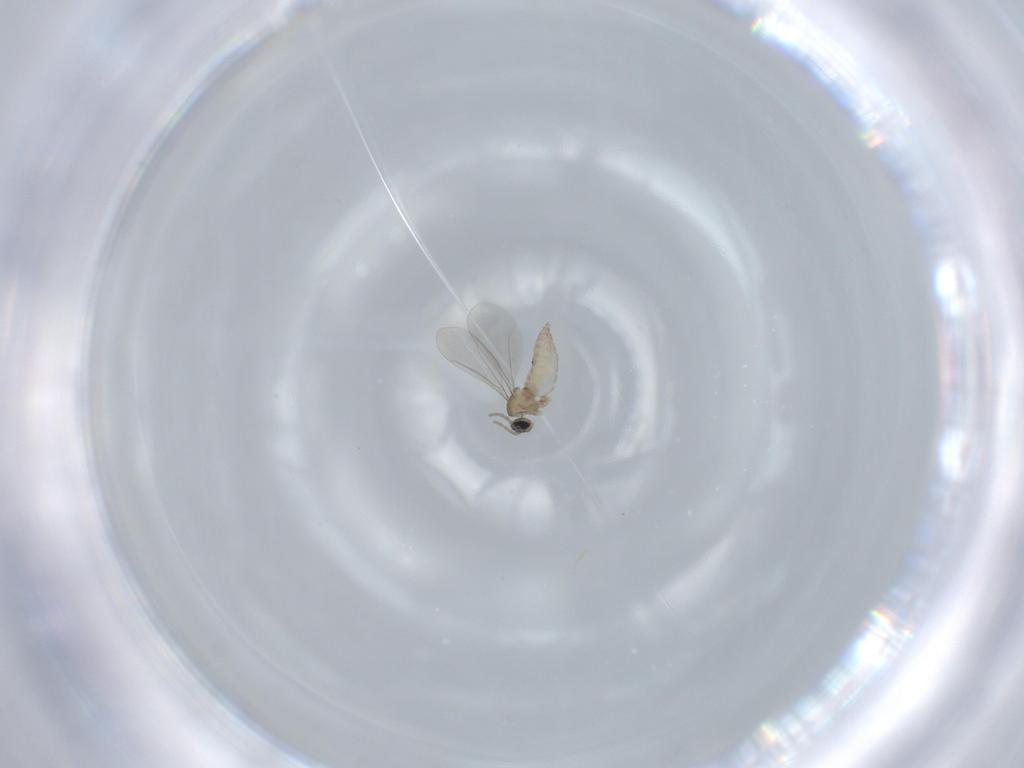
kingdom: Animalia
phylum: Arthropoda
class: Insecta
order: Diptera
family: Cecidomyiidae
